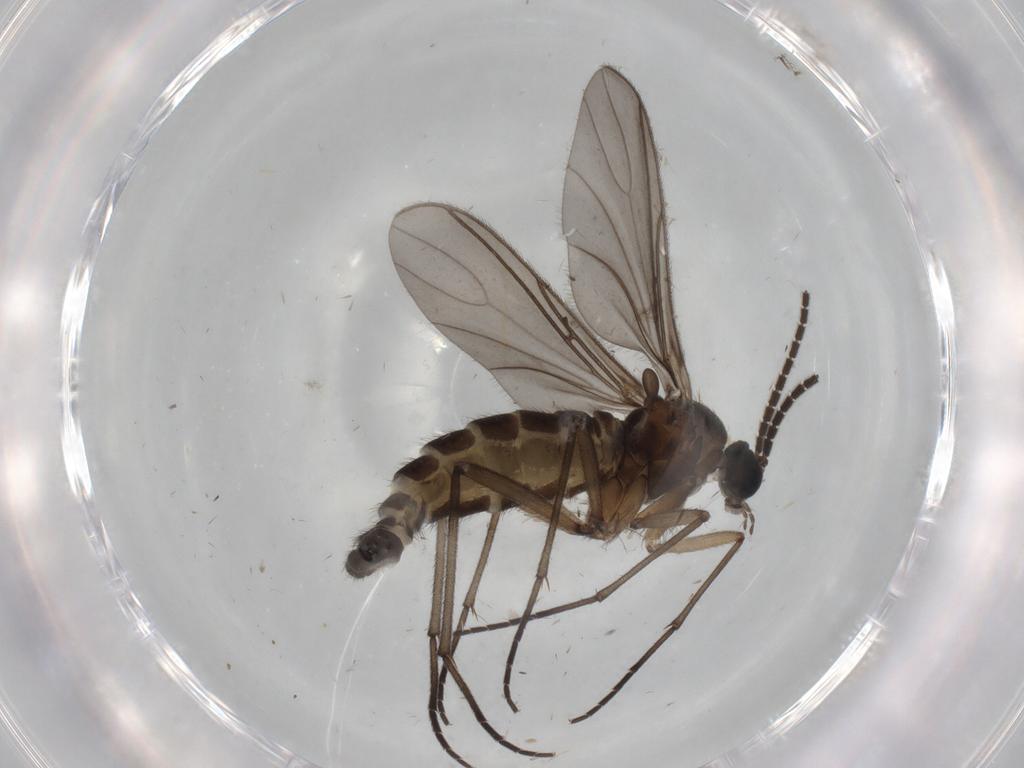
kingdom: Animalia
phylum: Arthropoda
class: Insecta
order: Diptera
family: Sciaridae
